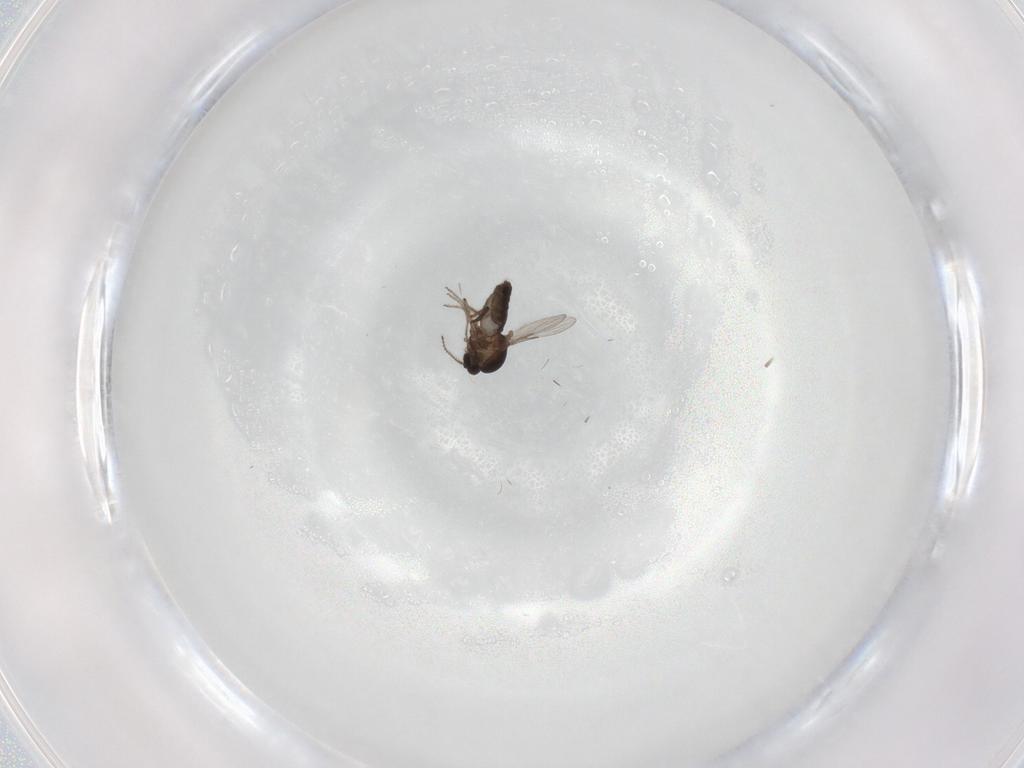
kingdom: Animalia
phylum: Arthropoda
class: Insecta
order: Diptera
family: Ceratopogonidae
